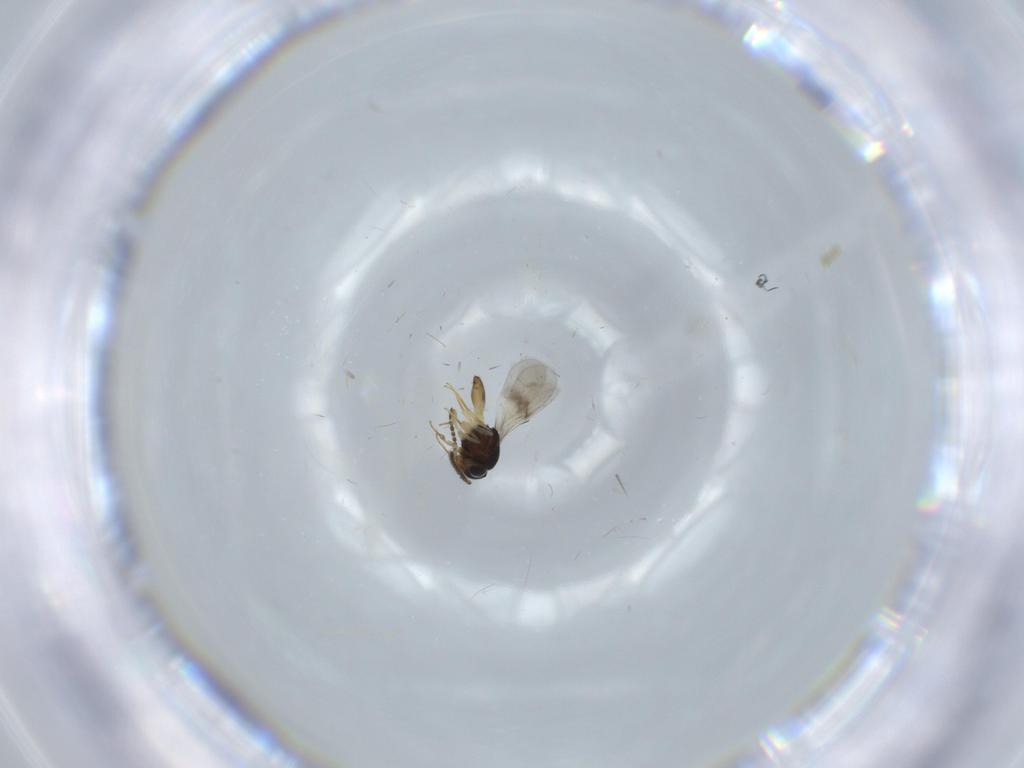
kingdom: Animalia
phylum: Arthropoda
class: Insecta
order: Hymenoptera
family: Scelionidae
